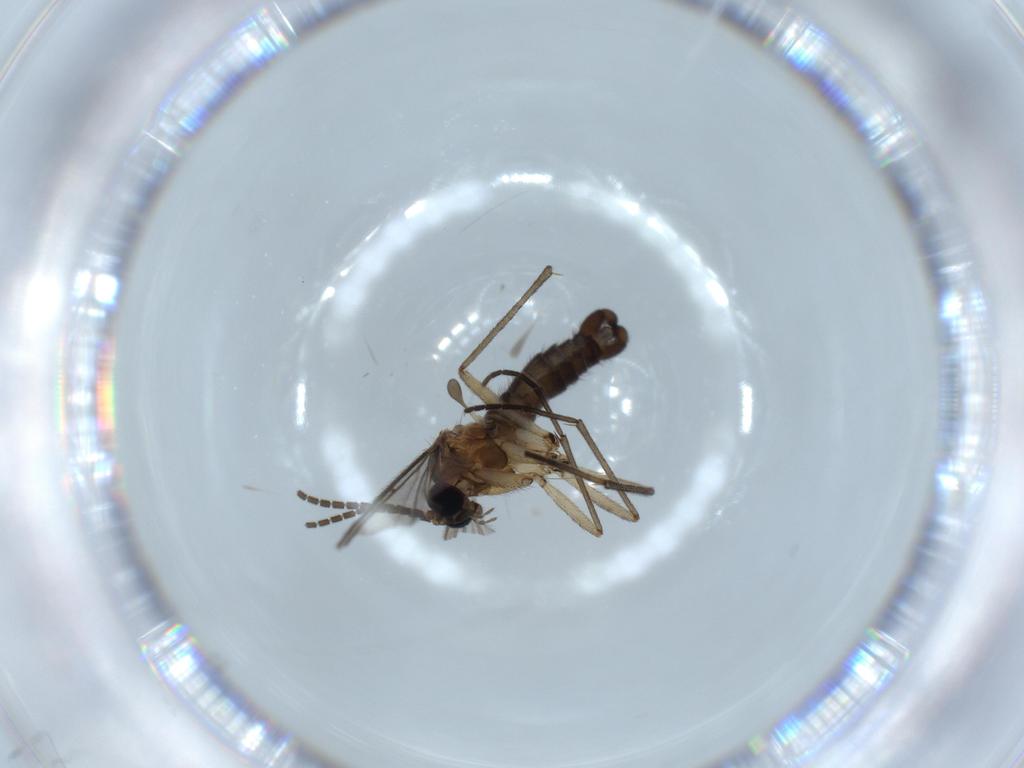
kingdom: Animalia
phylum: Arthropoda
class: Insecta
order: Diptera
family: Sciaridae
